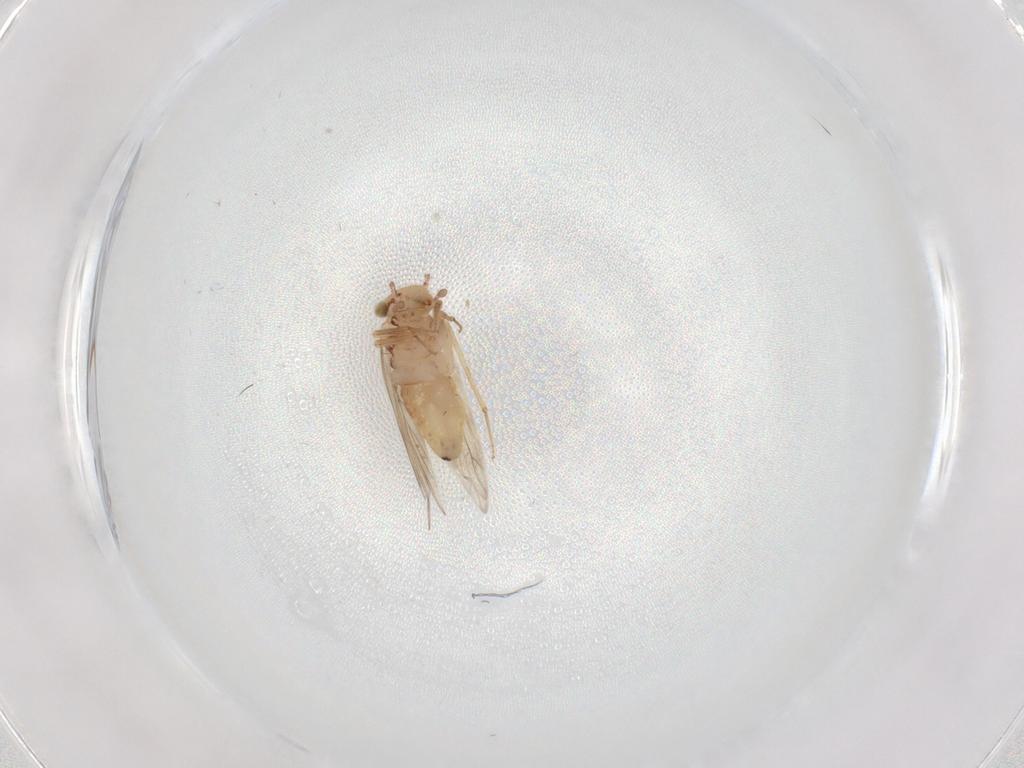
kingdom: Animalia
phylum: Arthropoda
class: Insecta
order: Psocodea
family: Lepidopsocidae
